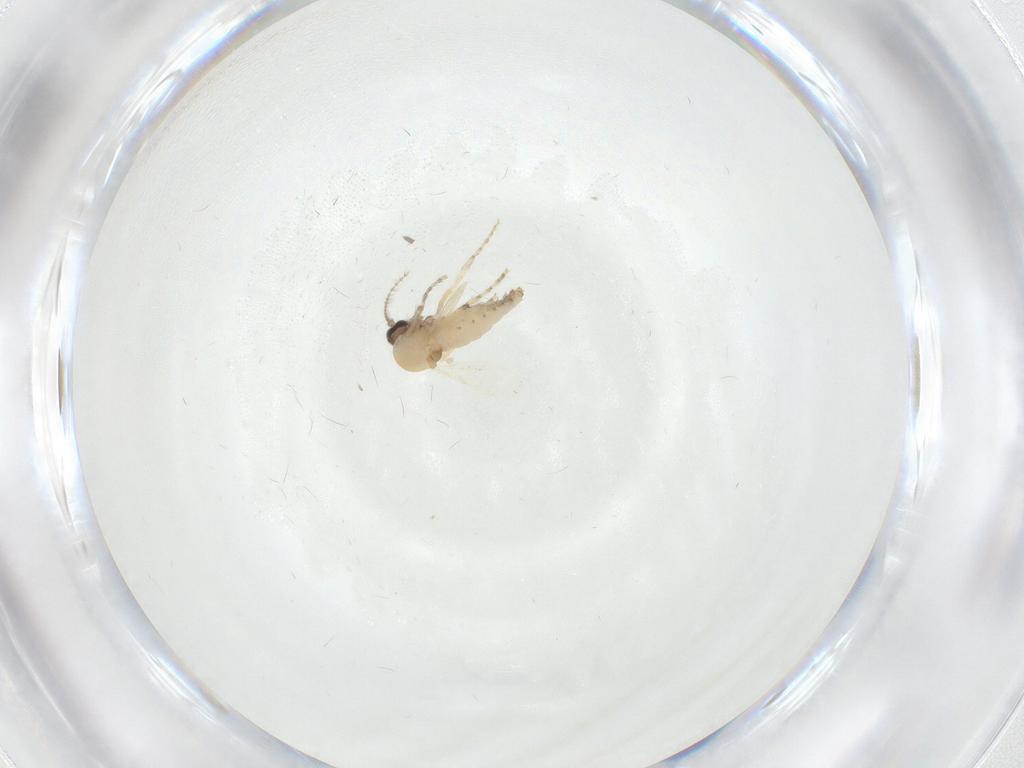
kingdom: Animalia
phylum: Arthropoda
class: Insecta
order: Diptera
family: Ceratopogonidae
